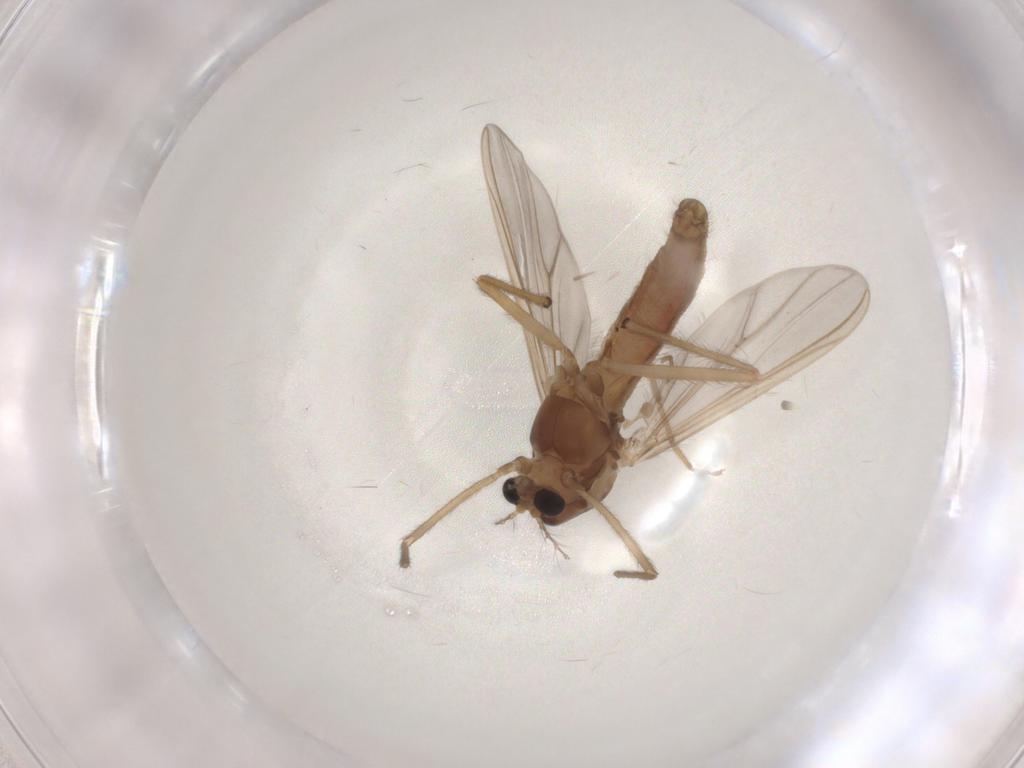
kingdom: Animalia
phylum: Arthropoda
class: Insecta
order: Diptera
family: Chironomidae
